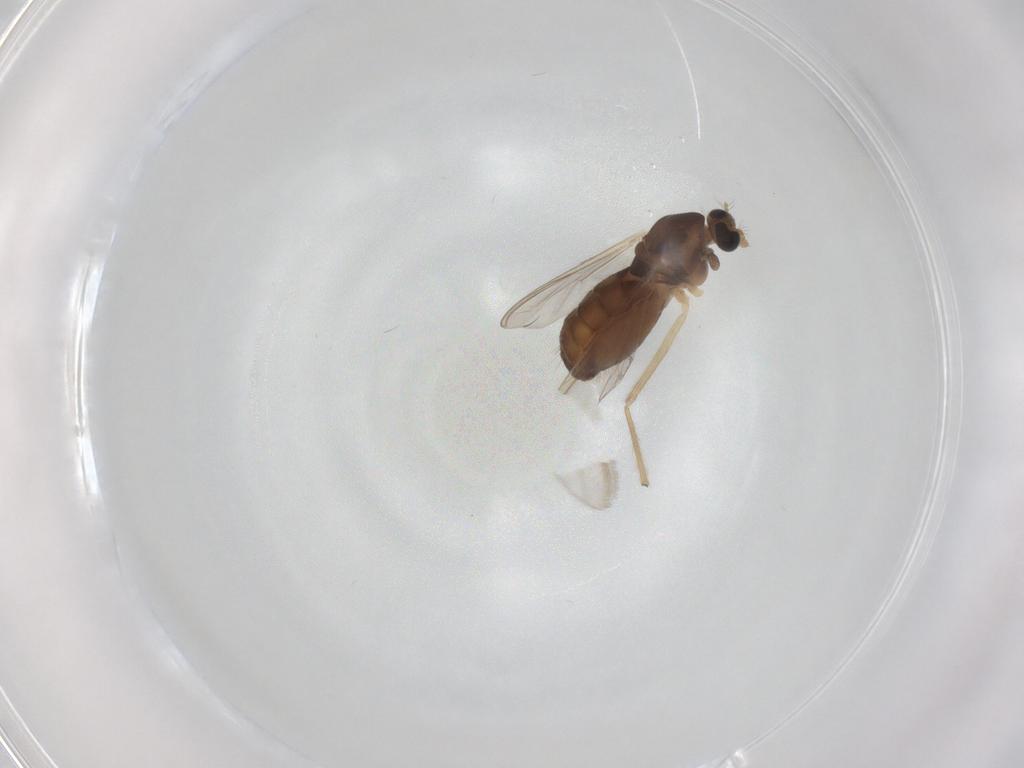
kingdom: Animalia
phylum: Arthropoda
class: Insecta
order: Diptera
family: Chironomidae
